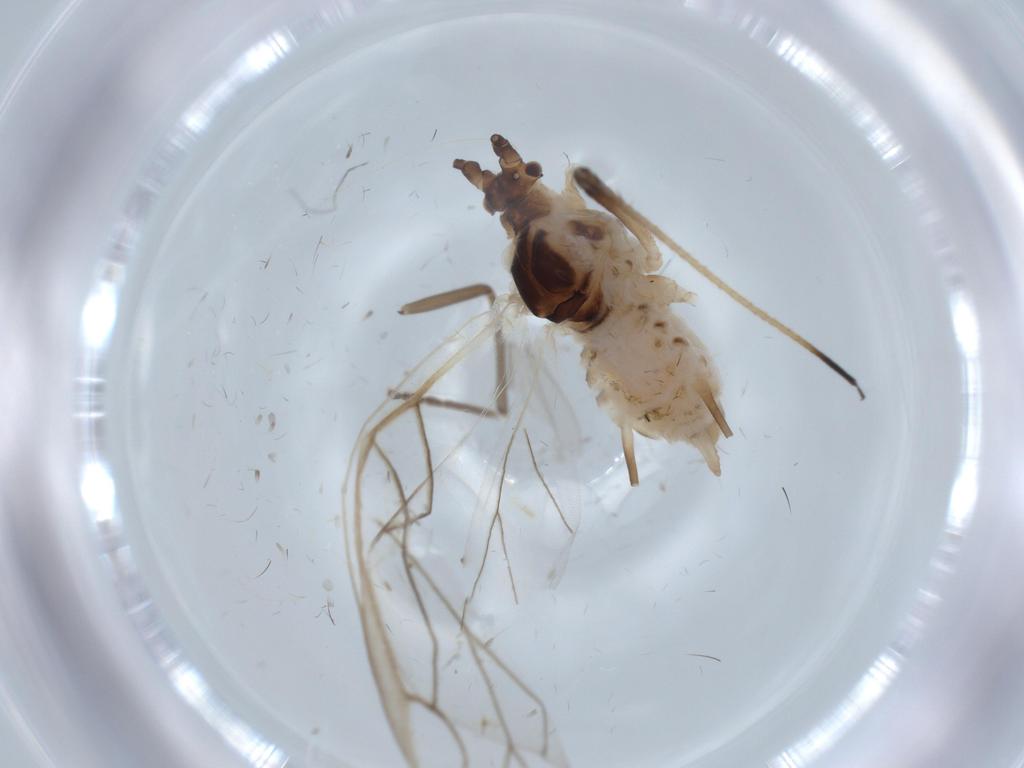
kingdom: Animalia
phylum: Arthropoda
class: Insecta
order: Hemiptera
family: Aphididae
